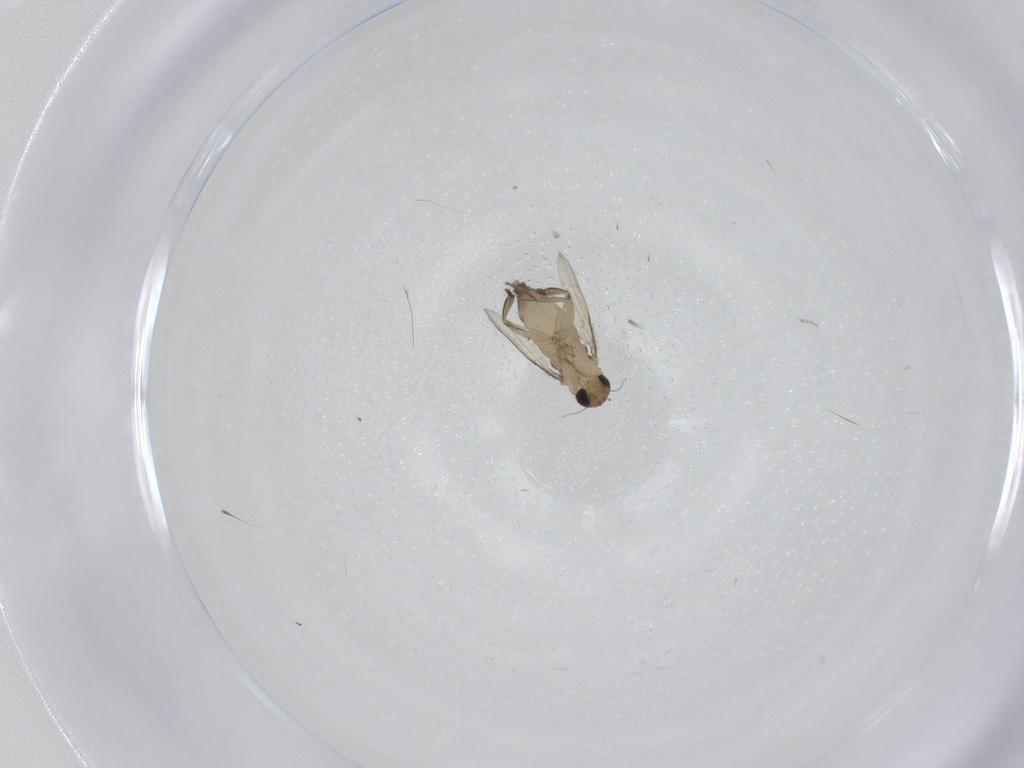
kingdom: Animalia
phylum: Arthropoda
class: Insecta
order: Diptera
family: Phoridae
